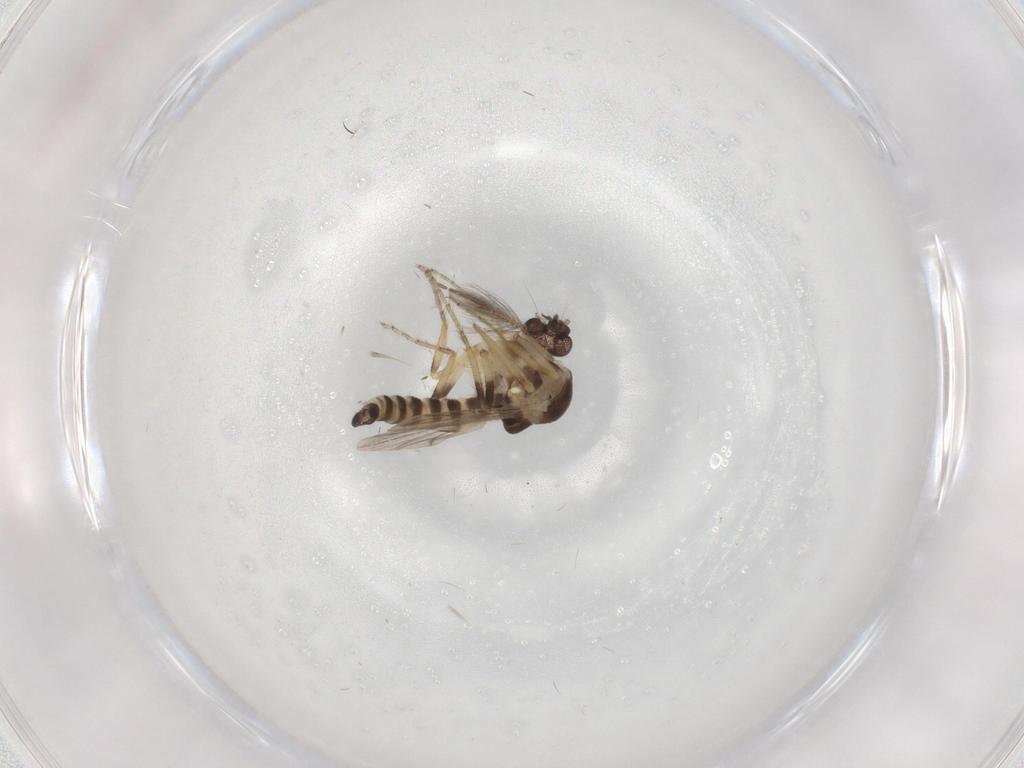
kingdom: Animalia
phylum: Arthropoda
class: Insecta
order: Diptera
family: Ceratopogonidae
